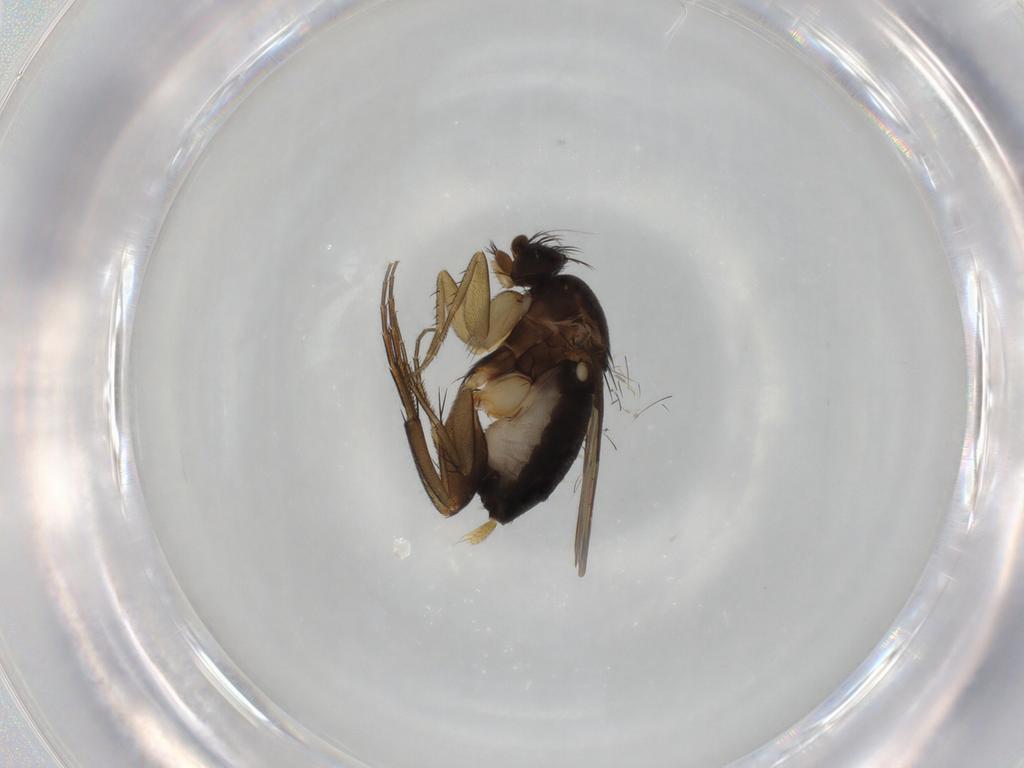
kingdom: Animalia
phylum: Arthropoda
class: Insecta
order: Diptera
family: Phoridae
